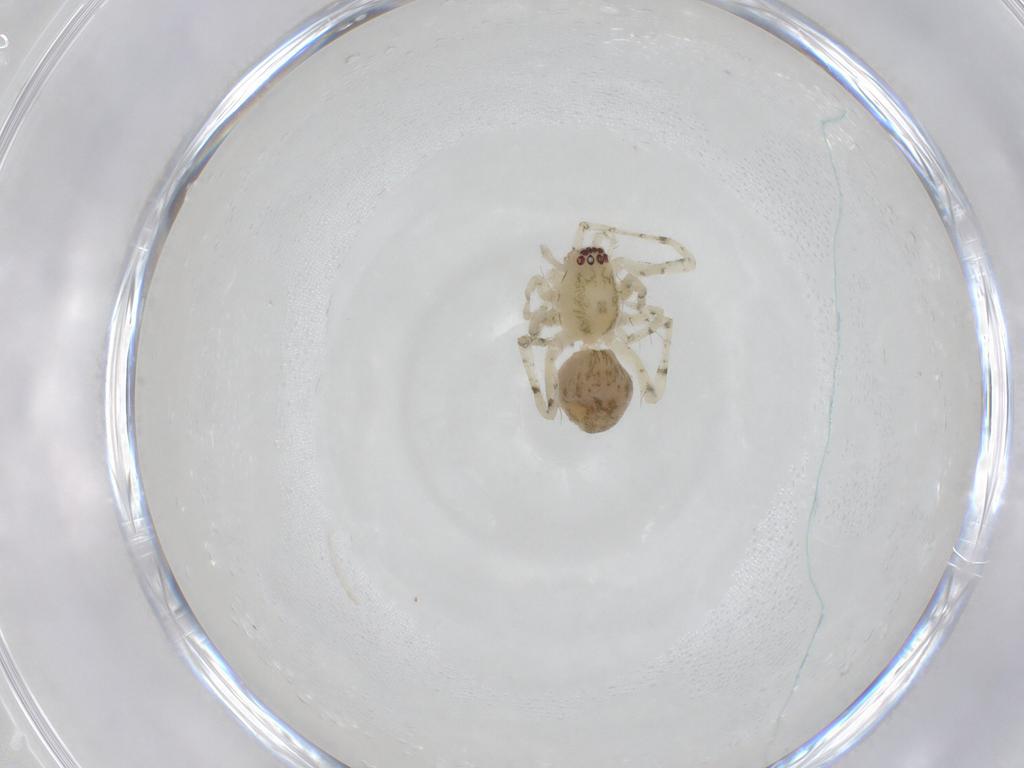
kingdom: Animalia
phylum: Arthropoda
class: Arachnida
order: Araneae
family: Anyphaenidae
